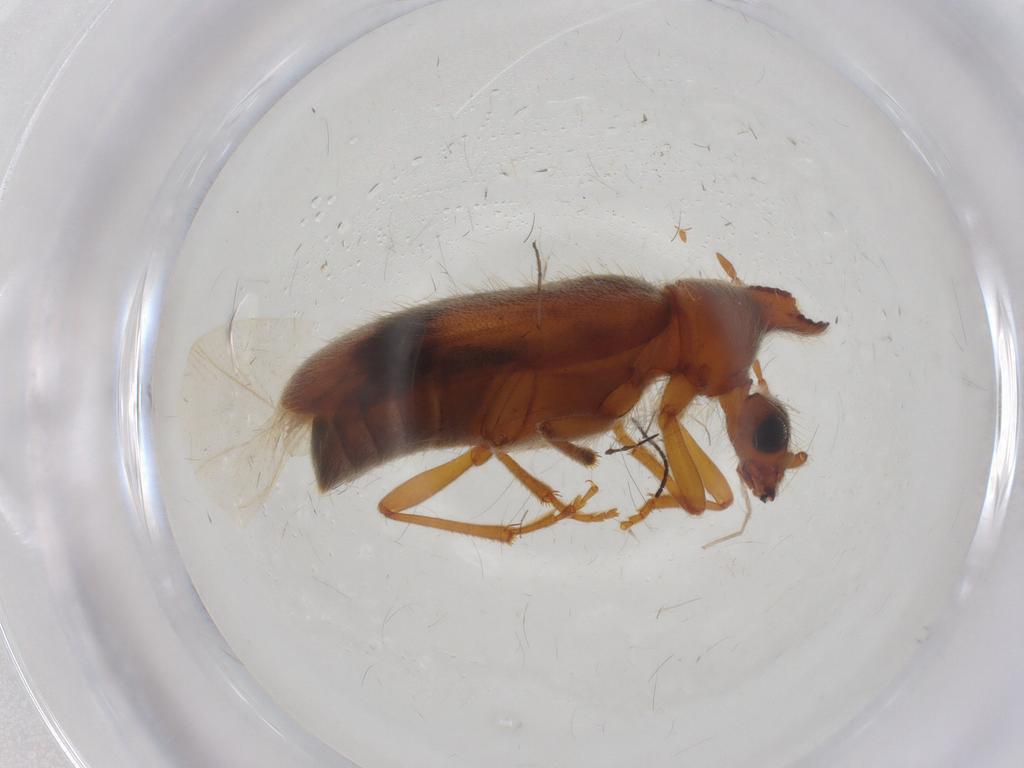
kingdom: Animalia
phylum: Arthropoda
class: Insecta
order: Coleoptera
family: Anthicidae
